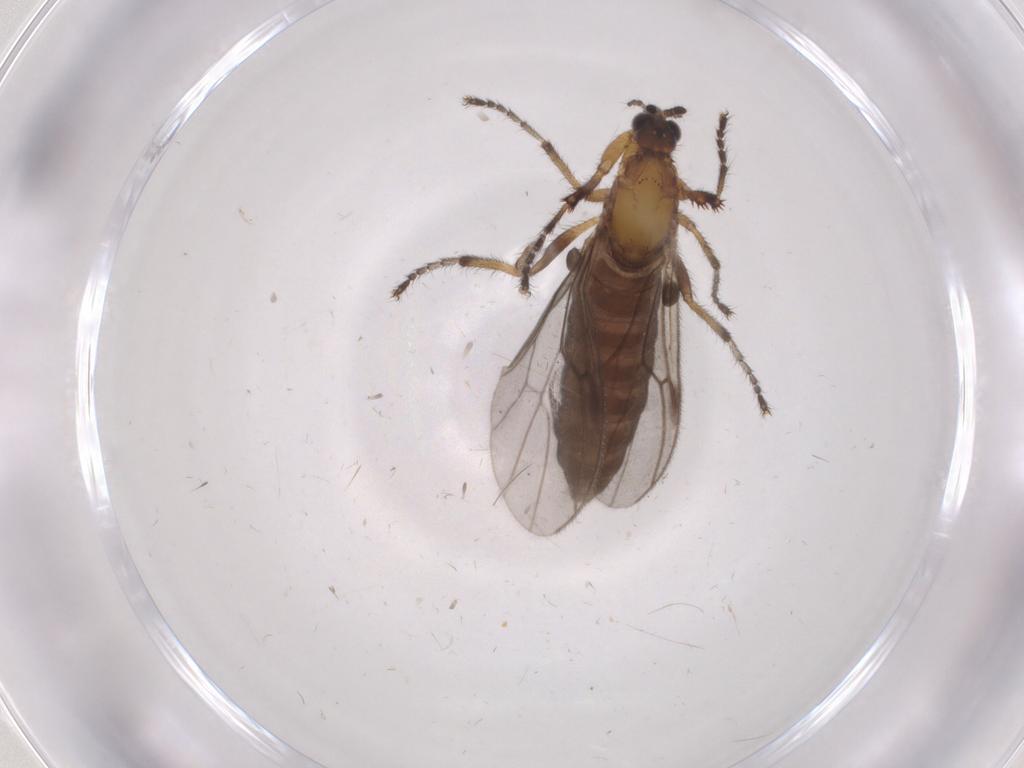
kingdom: Animalia
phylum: Arthropoda
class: Insecta
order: Diptera
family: Bibionidae
